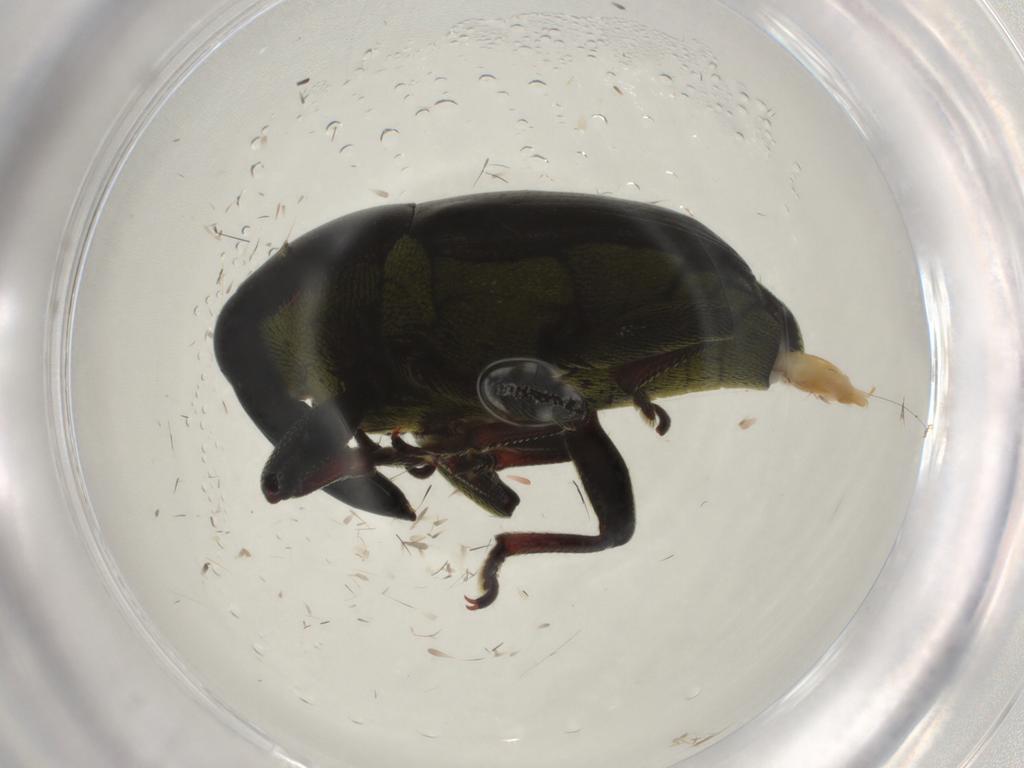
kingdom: Animalia
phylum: Arthropoda
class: Insecta
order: Coleoptera
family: Curculionidae
